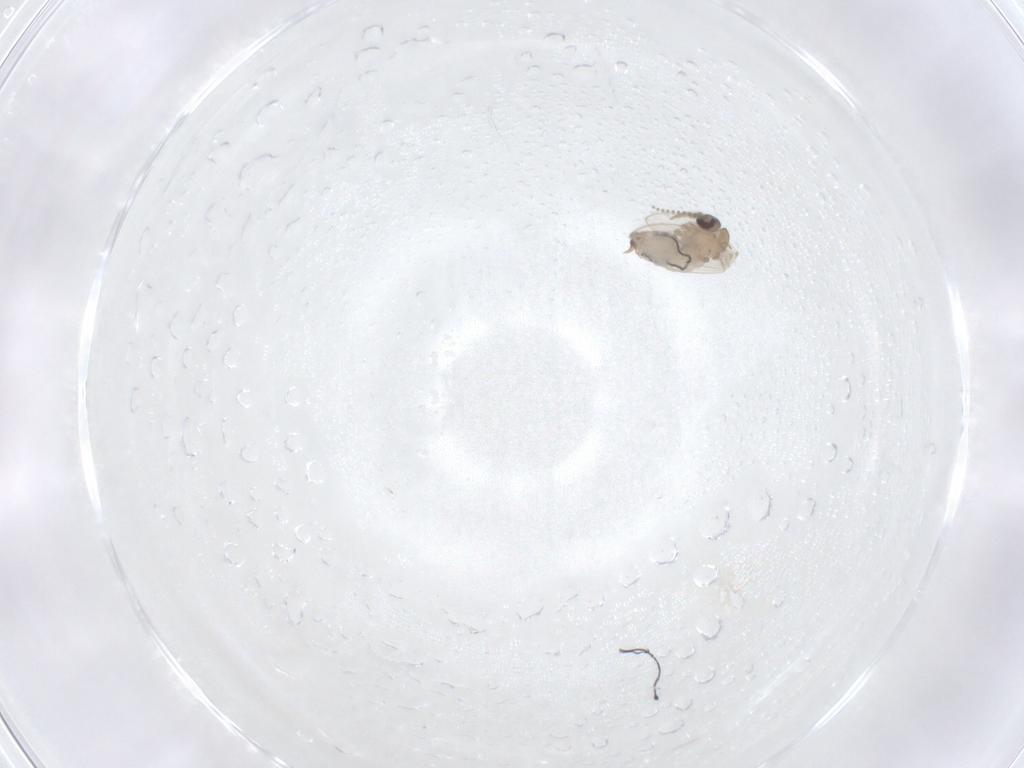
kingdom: Animalia
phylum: Arthropoda
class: Insecta
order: Diptera
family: Psychodidae
